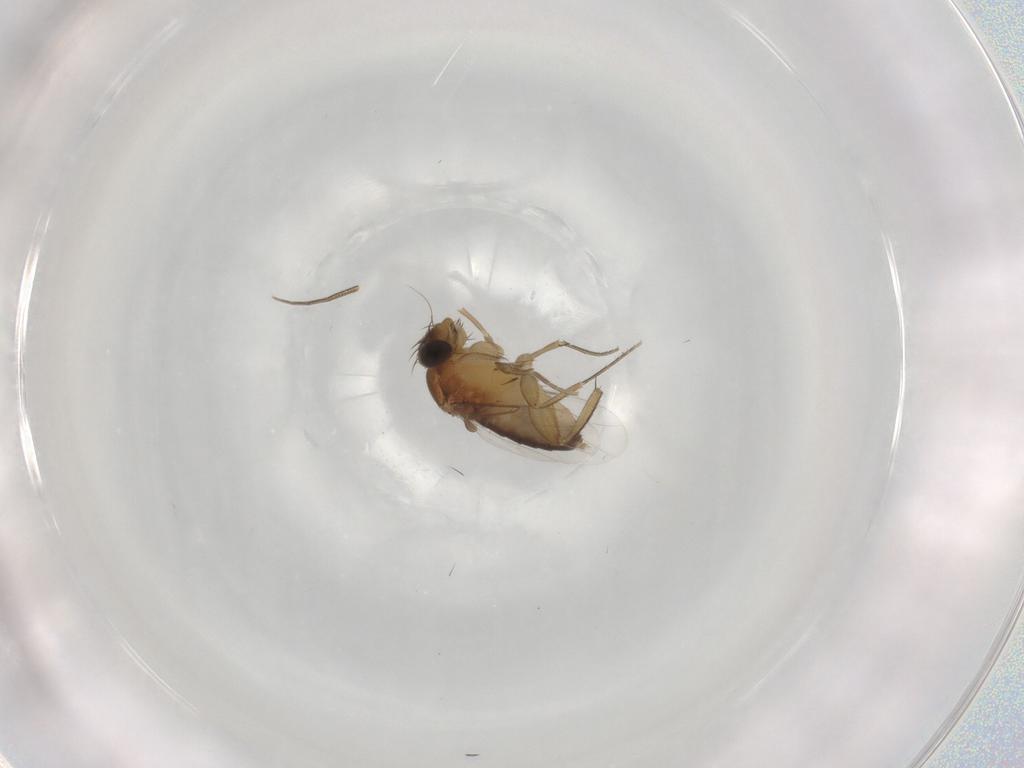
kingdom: Animalia
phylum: Arthropoda
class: Insecta
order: Diptera
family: Phoridae
